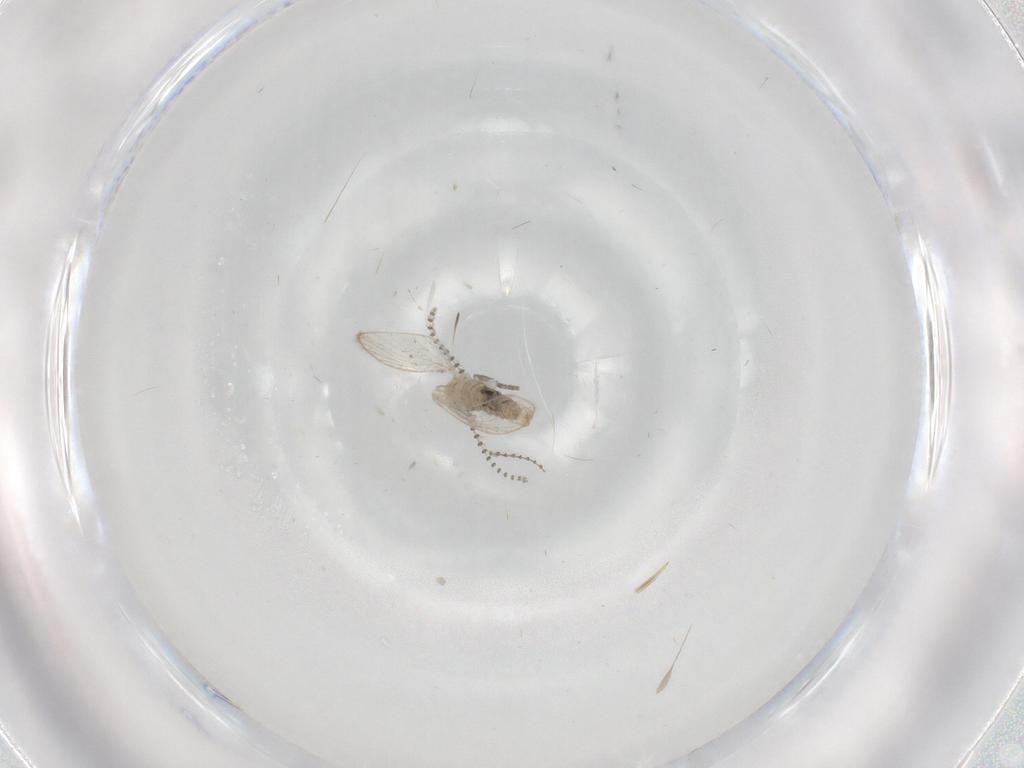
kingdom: Animalia
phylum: Arthropoda
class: Insecta
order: Diptera
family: Psychodidae
